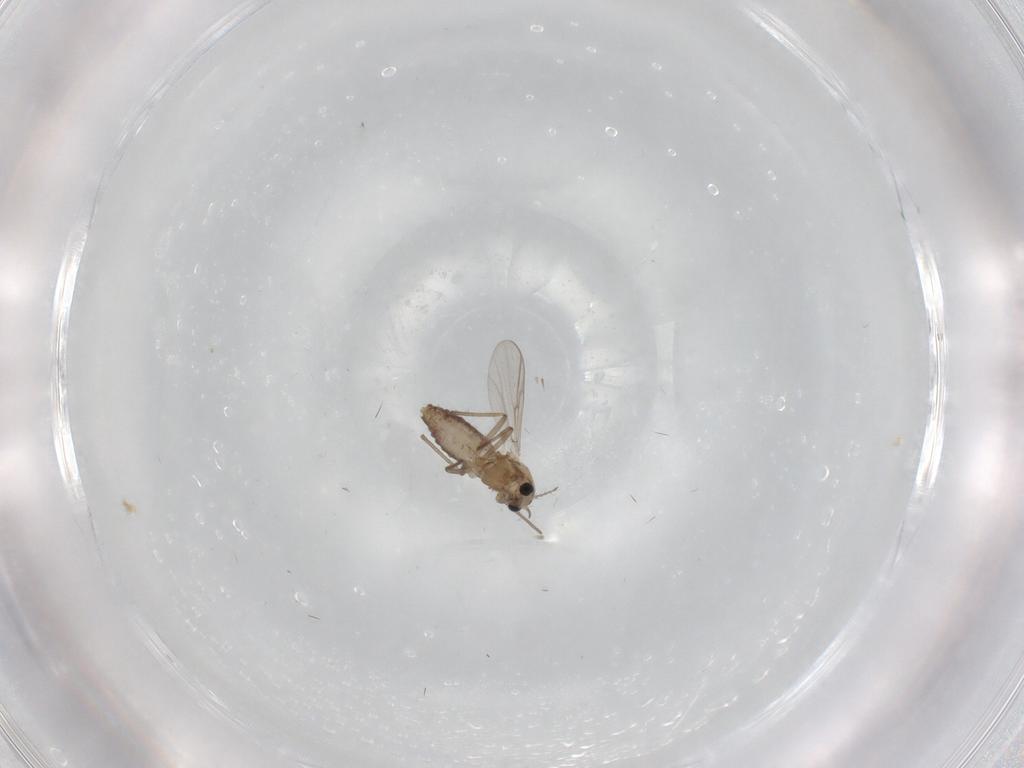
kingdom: Animalia
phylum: Arthropoda
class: Insecta
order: Diptera
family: Chironomidae
